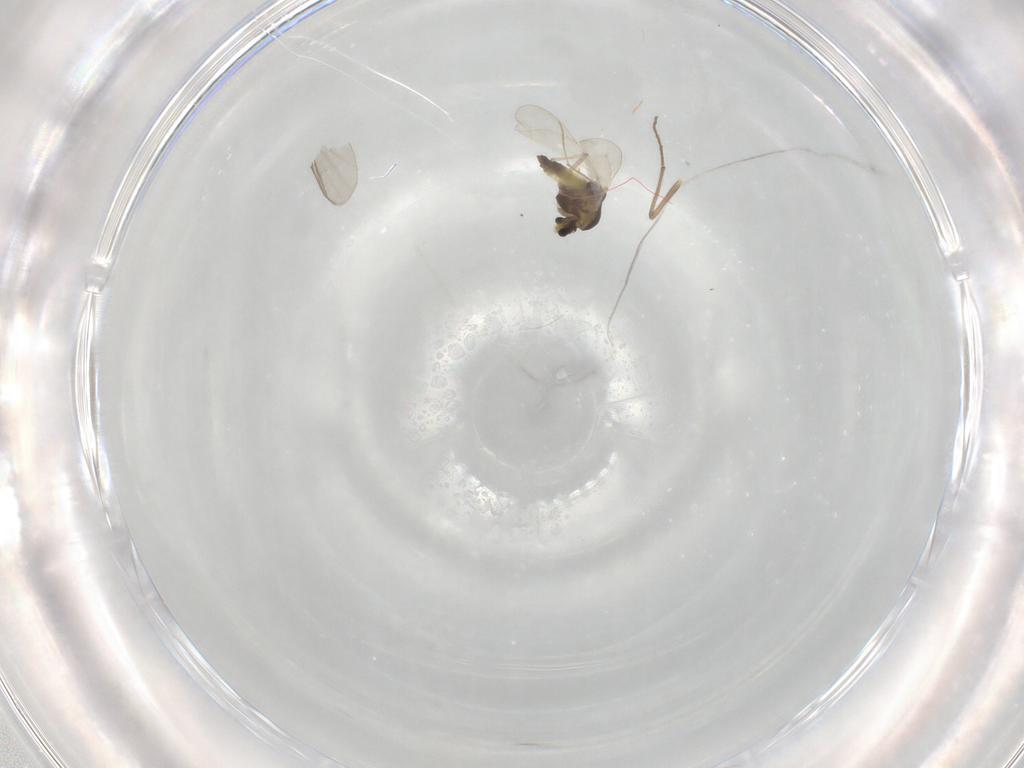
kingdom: Animalia
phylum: Arthropoda
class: Insecta
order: Diptera
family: Chironomidae
